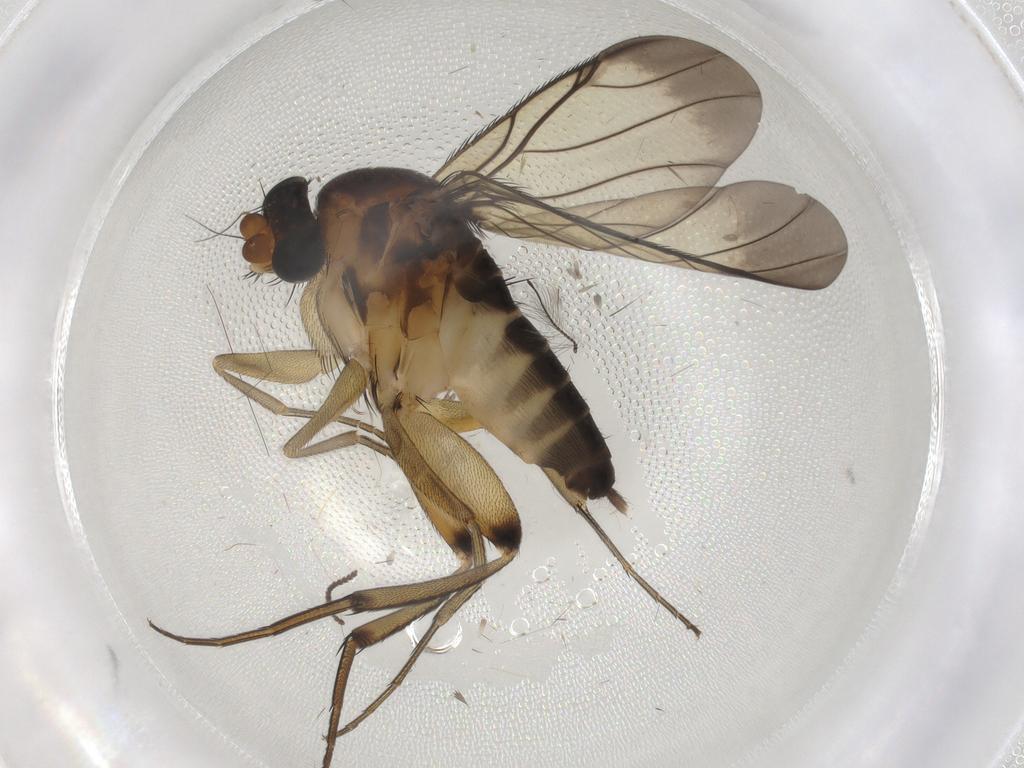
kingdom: Animalia
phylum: Arthropoda
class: Insecta
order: Diptera
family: Phoridae
